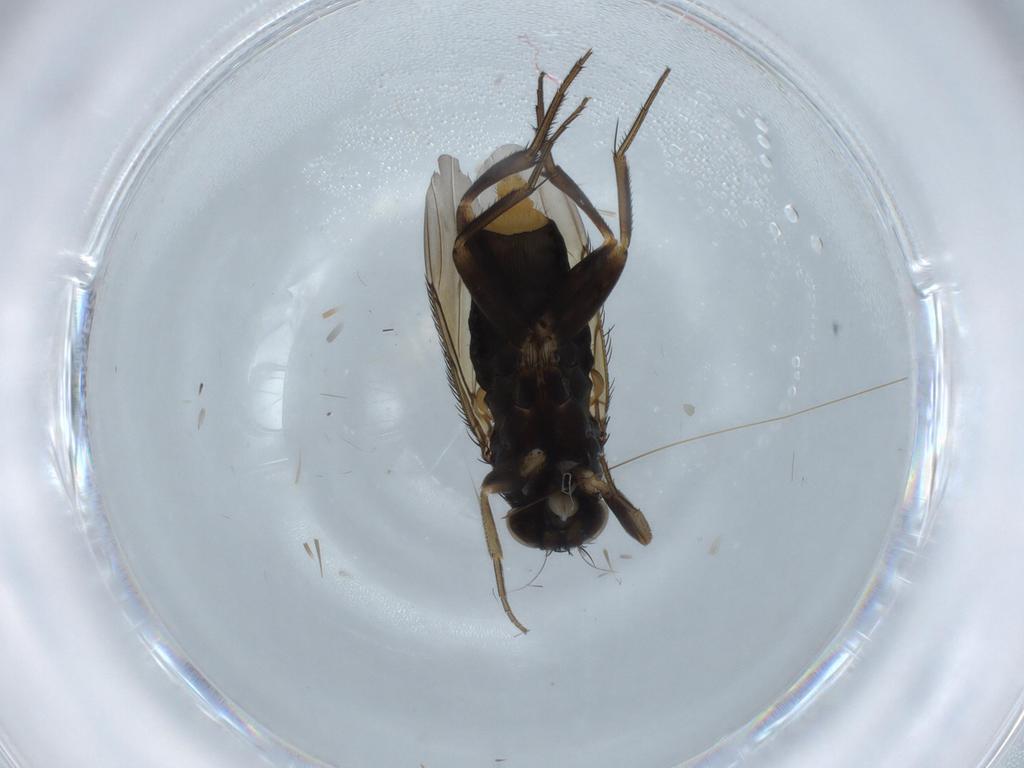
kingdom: Animalia
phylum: Arthropoda
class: Insecta
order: Diptera
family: Phoridae
